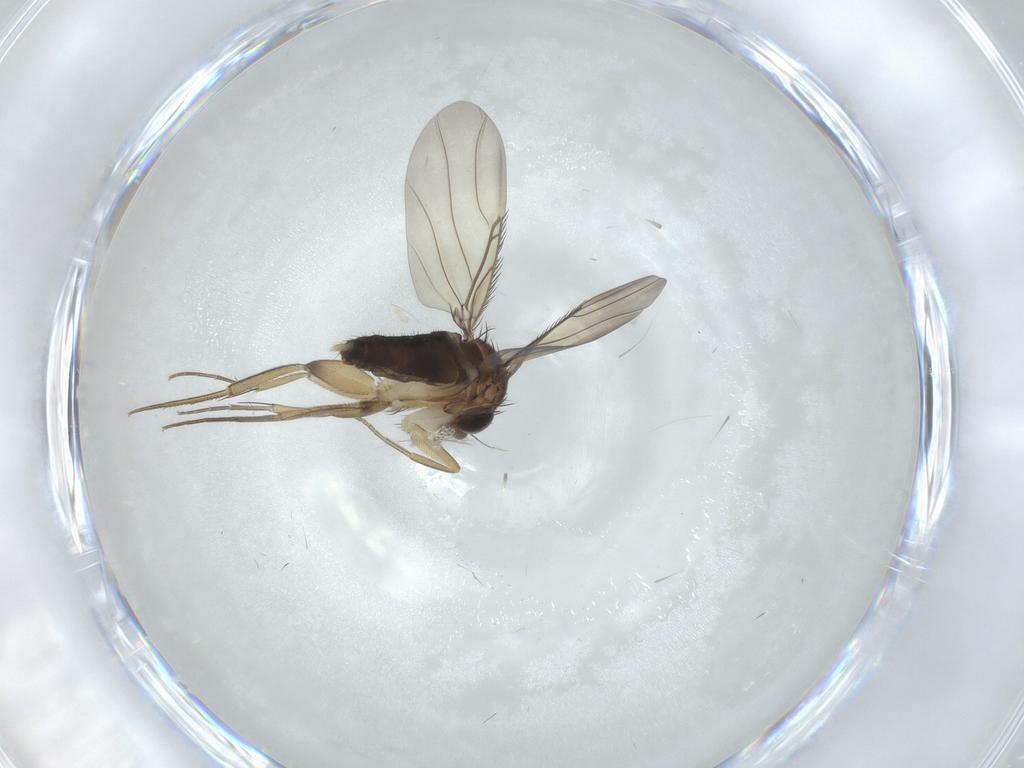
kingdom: Animalia
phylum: Arthropoda
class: Insecta
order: Diptera
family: Phoridae
